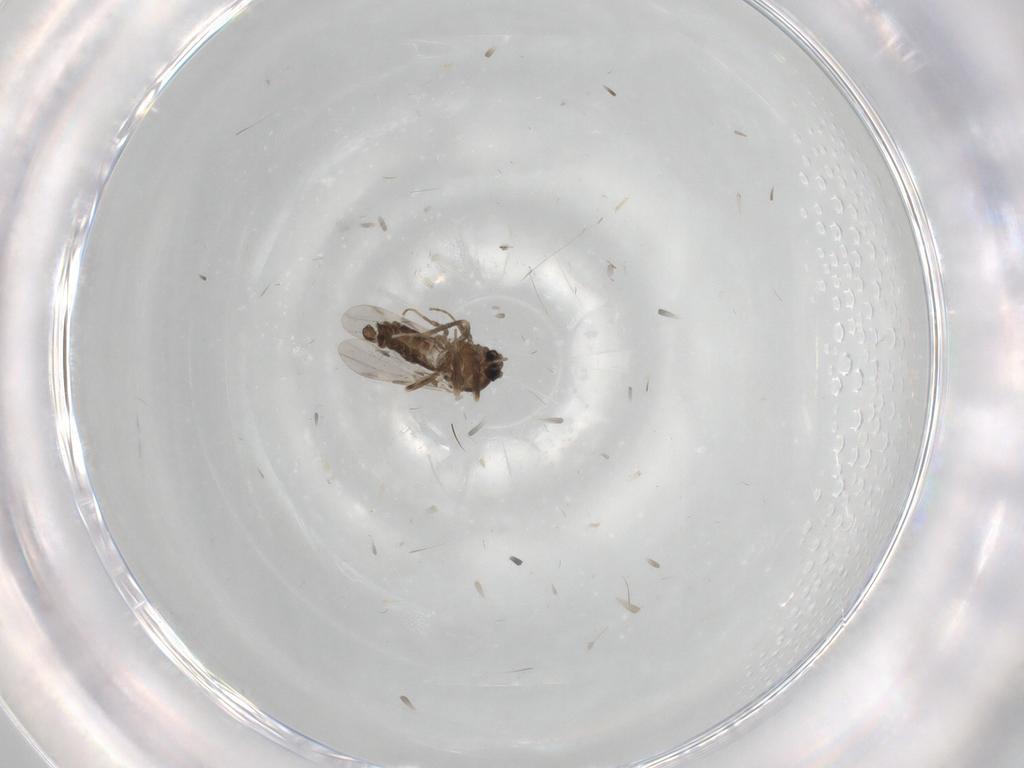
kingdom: Animalia
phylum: Arthropoda
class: Insecta
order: Diptera
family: Ceratopogonidae
